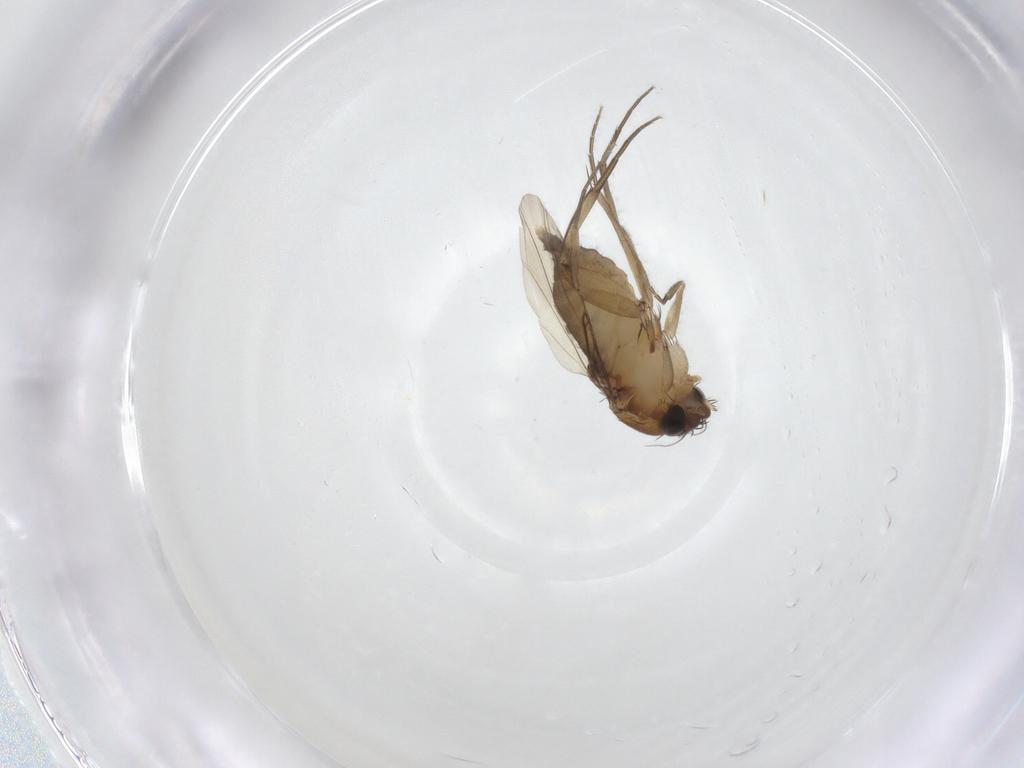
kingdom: Animalia
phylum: Arthropoda
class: Insecta
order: Diptera
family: Phoridae
